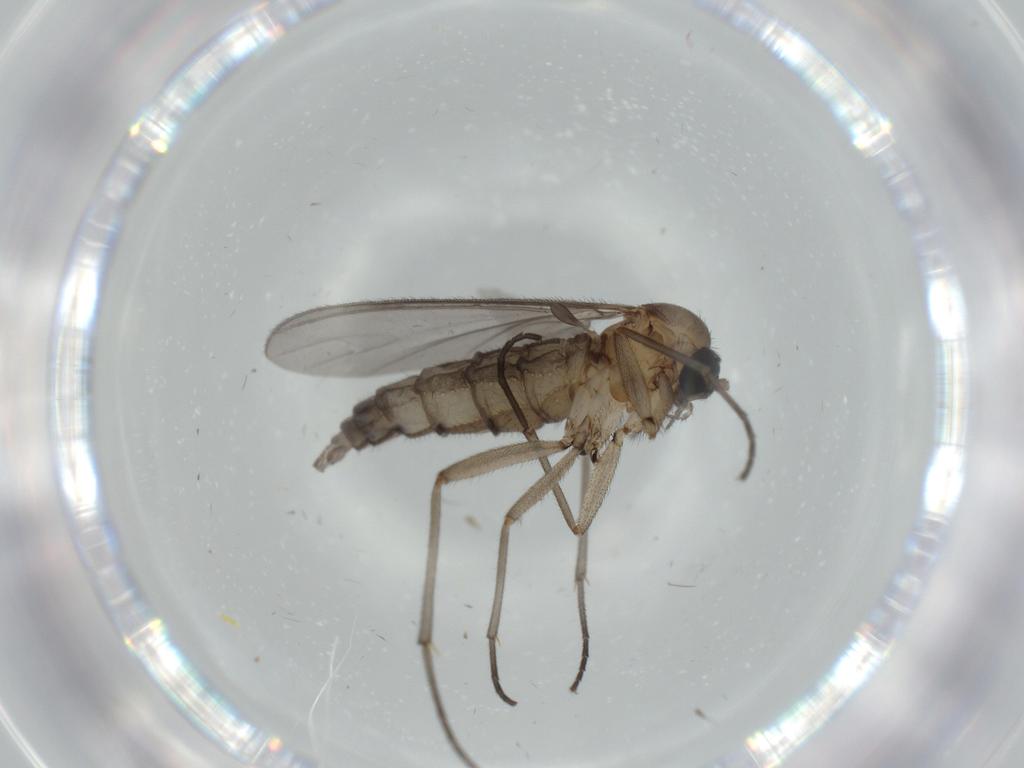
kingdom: Animalia
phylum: Arthropoda
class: Insecta
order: Diptera
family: Sciaridae
